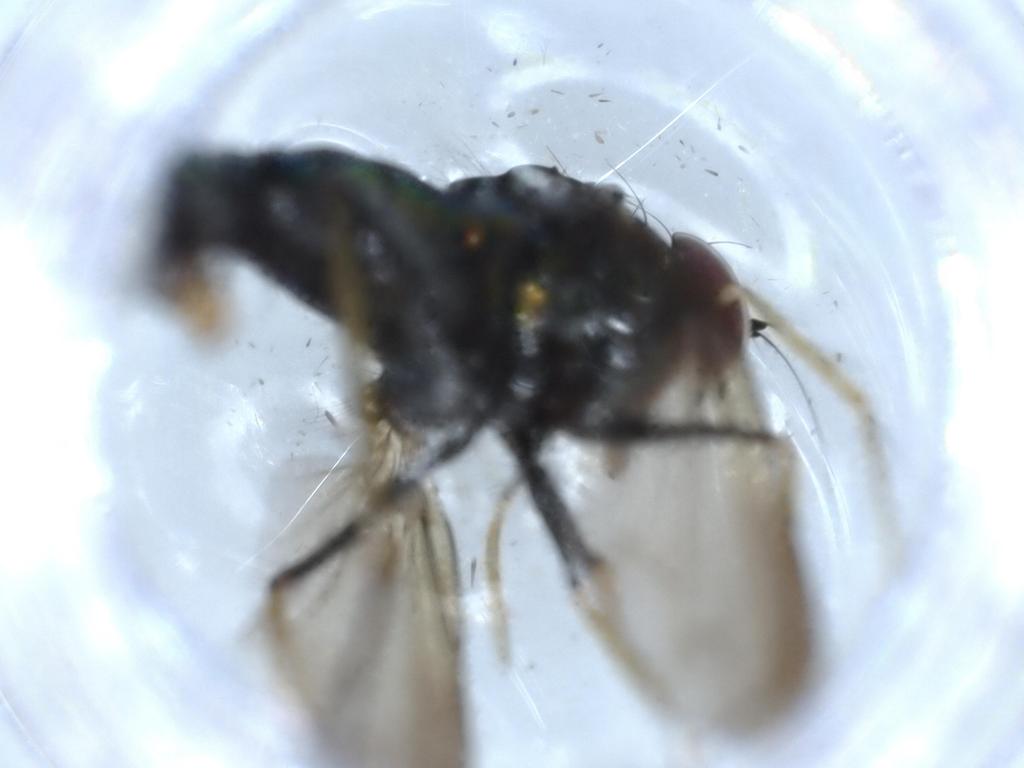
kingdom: Animalia
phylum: Arthropoda
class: Insecta
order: Diptera
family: Dolichopodidae
